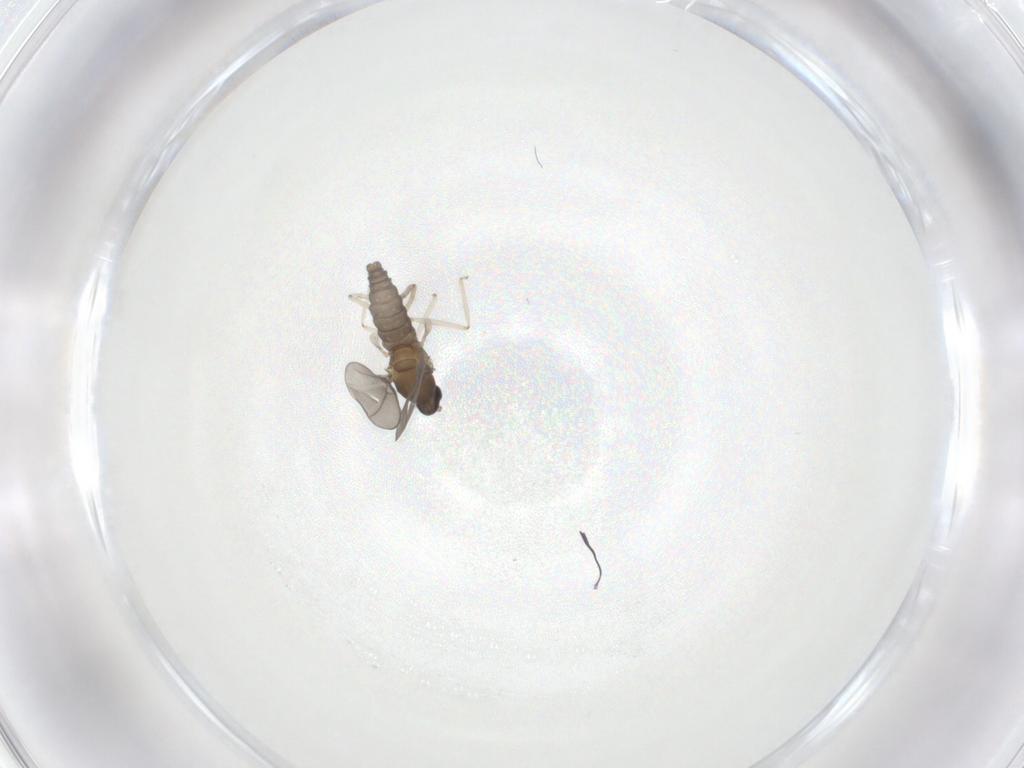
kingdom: Animalia
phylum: Arthropoda
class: Insecta
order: Diptera
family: Cecidomyiidae
